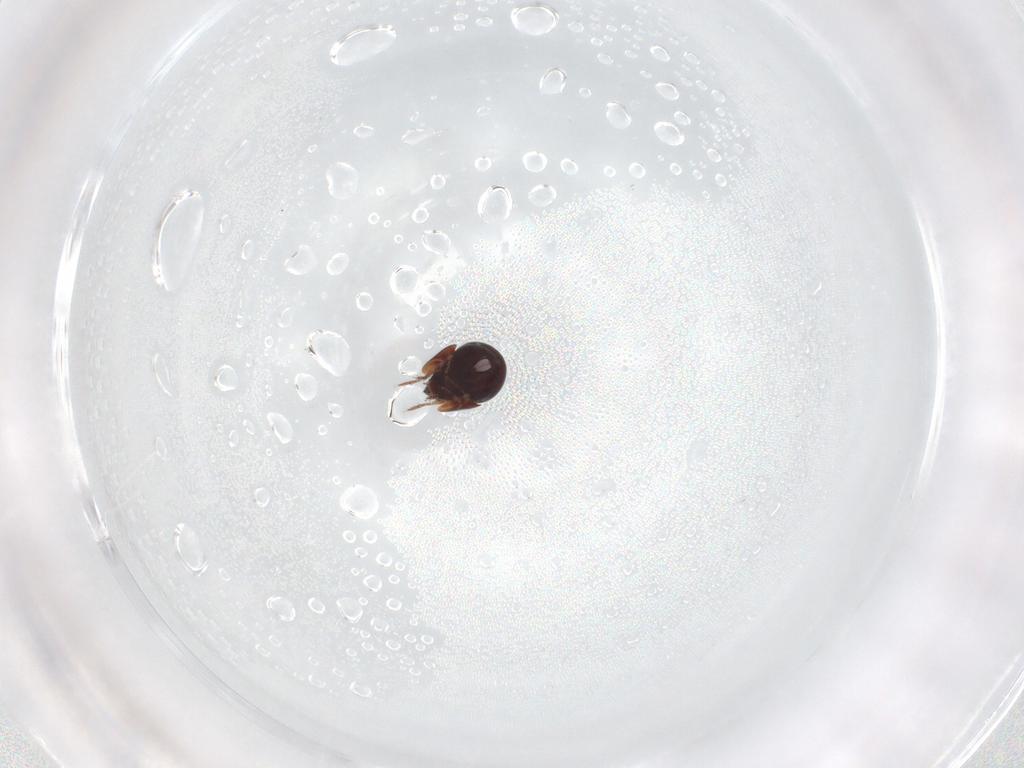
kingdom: Animalia
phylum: Arthropoda
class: Arachnida
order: Sarcoptiformes
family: Galumnidae
